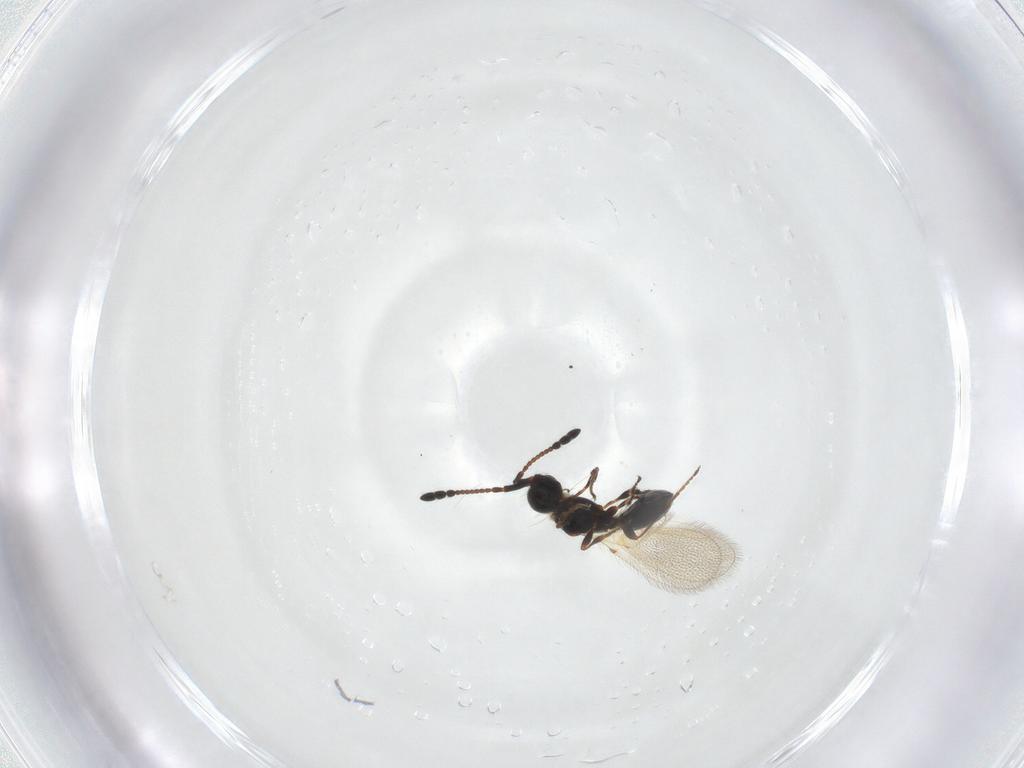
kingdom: Animalia
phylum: Arthropoda
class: Insecta
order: Hymenoptera
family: Diapriidae
